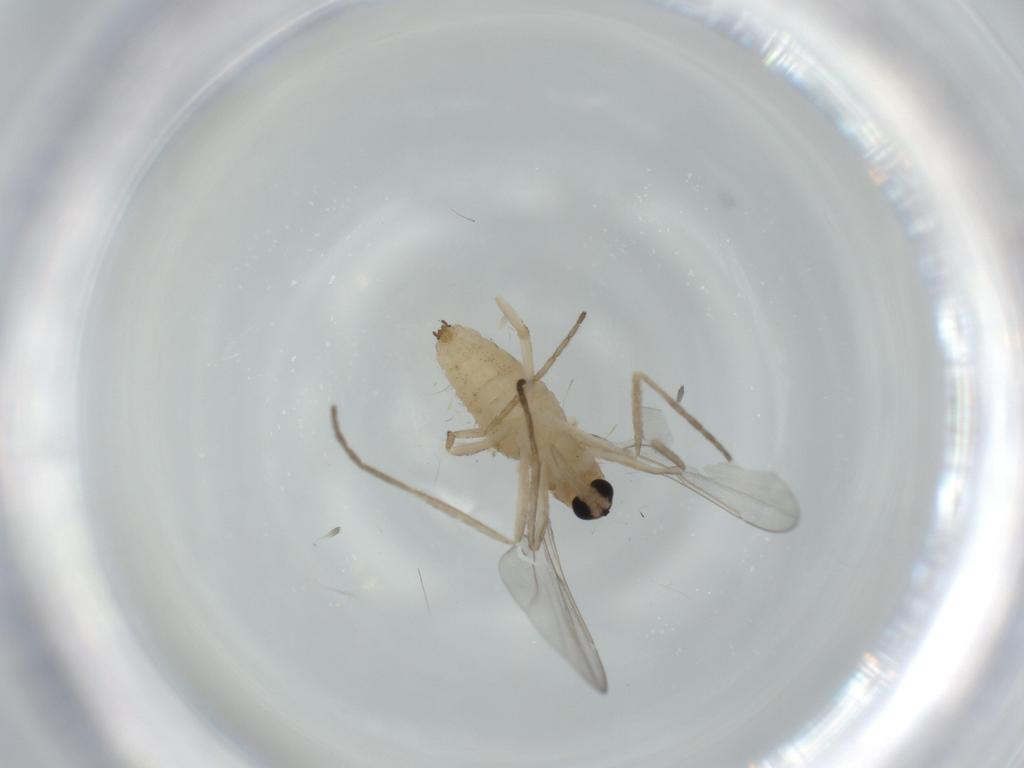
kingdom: Animalia
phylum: Arthropoda
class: Insecta
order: Diptera
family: Cecidomyiidae
